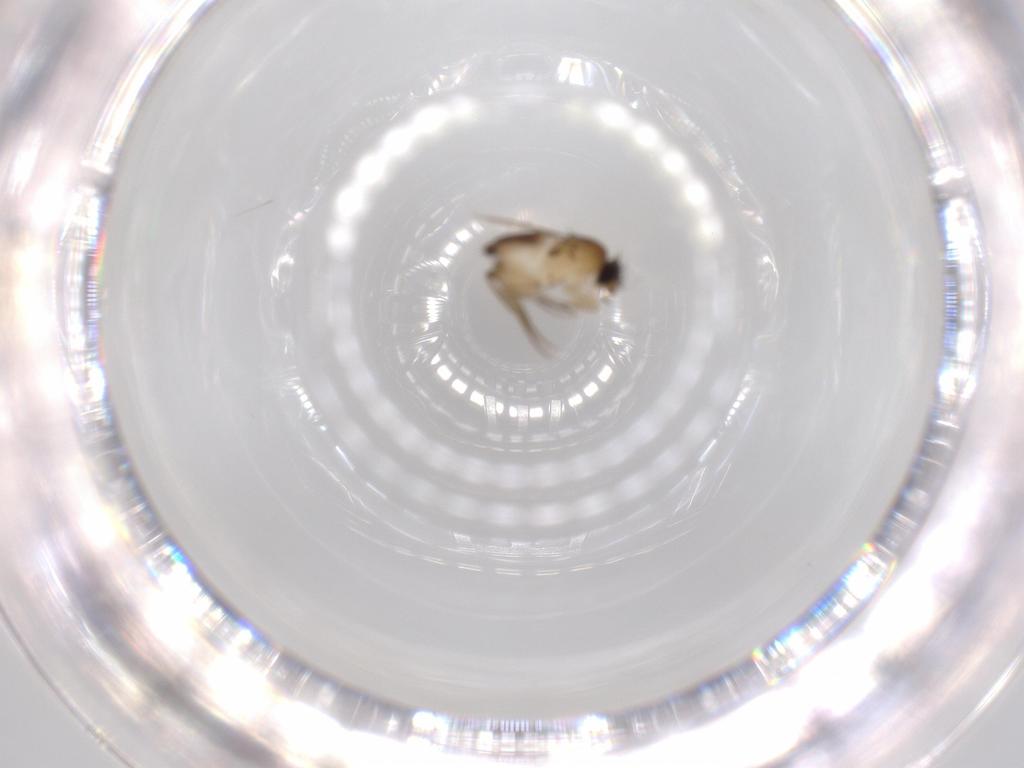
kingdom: Animalia
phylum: Arthropoda
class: Insecta
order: Diptera
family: Phoridae
